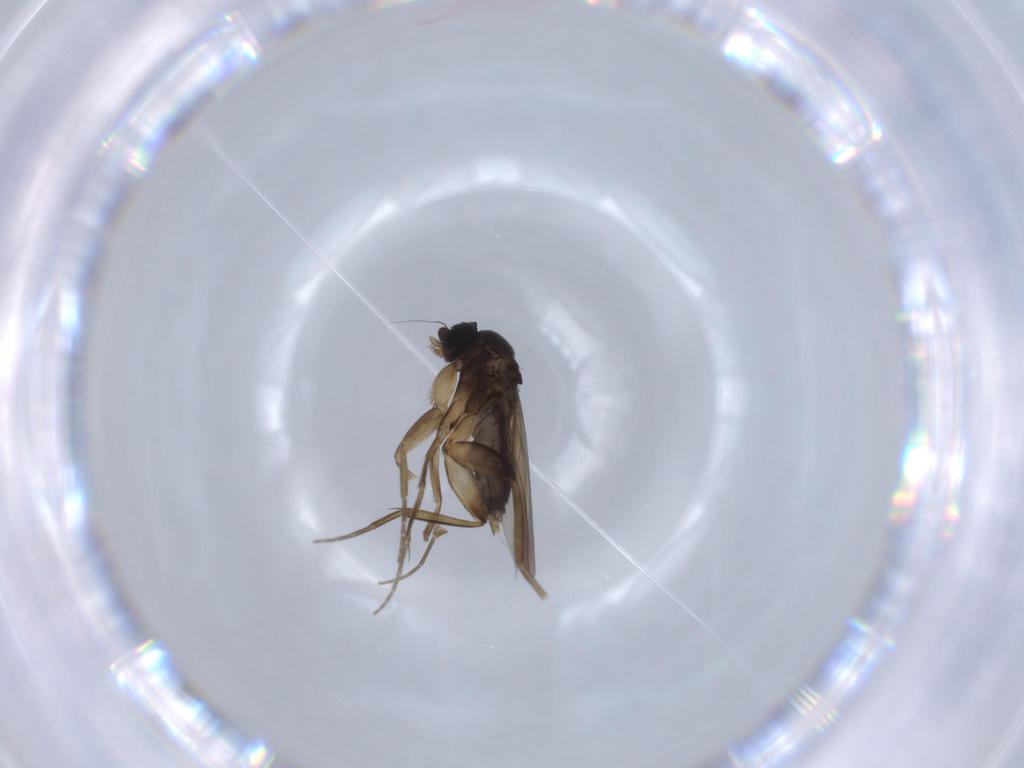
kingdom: Animalia
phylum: Arthropoda
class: Insecta
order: Diptera
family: Phoridae
